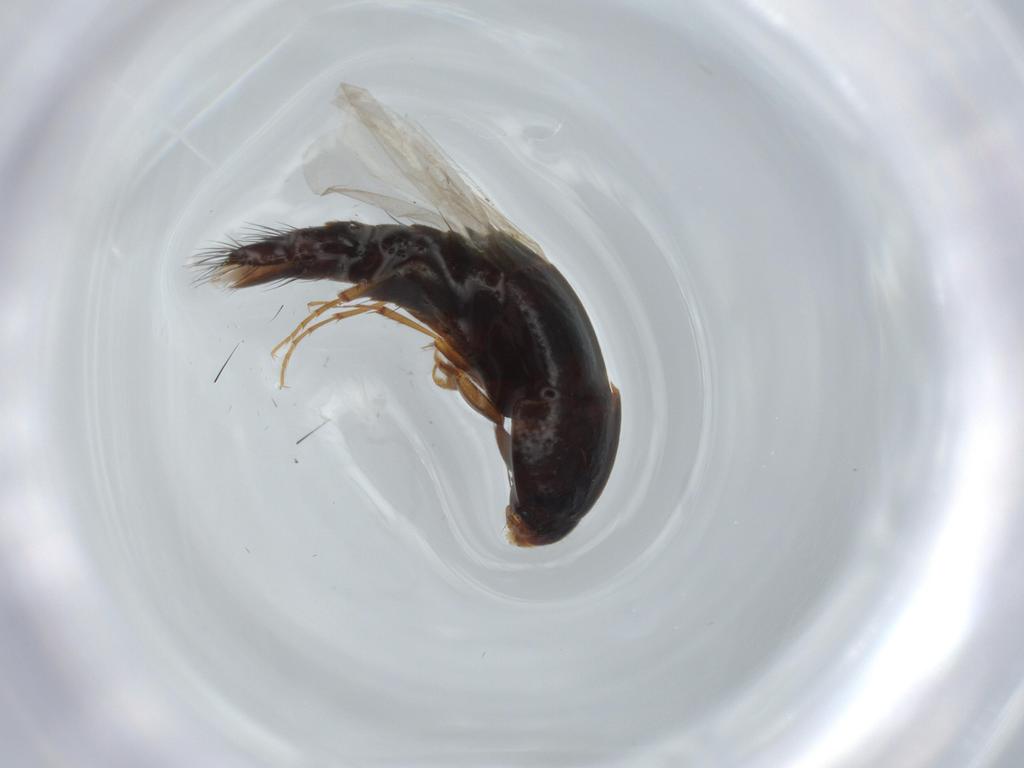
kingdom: Animalia
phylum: Arthropoda
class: Insecta
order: Coleoptera
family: Staphylinidae
